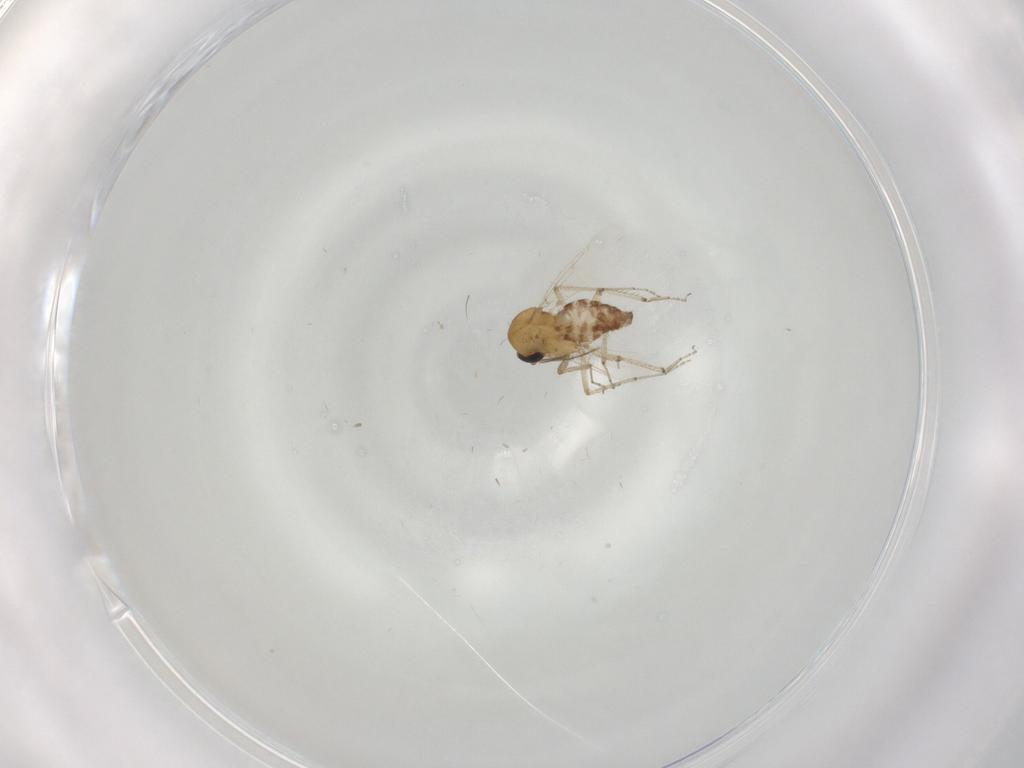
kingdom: Animalia
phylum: Arthropoda
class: Insecta
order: Diptera
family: Ceratopogonidae
